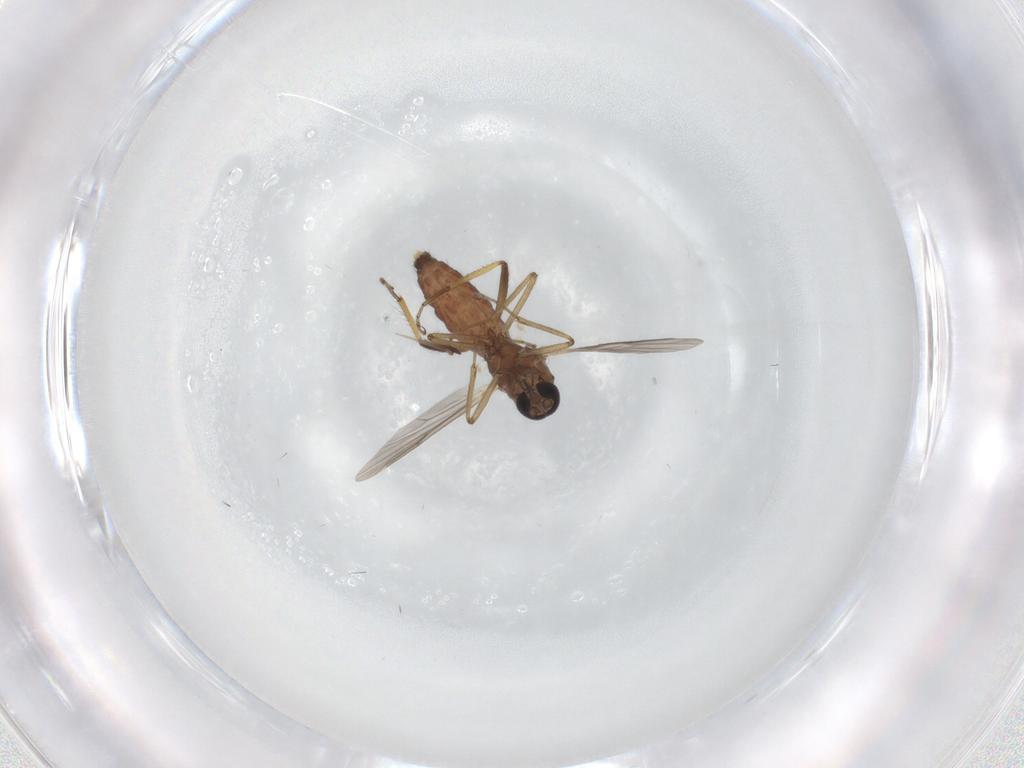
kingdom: Animalia
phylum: Arthropoda
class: Insecta
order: Diptera
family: Ceratopogonidae
